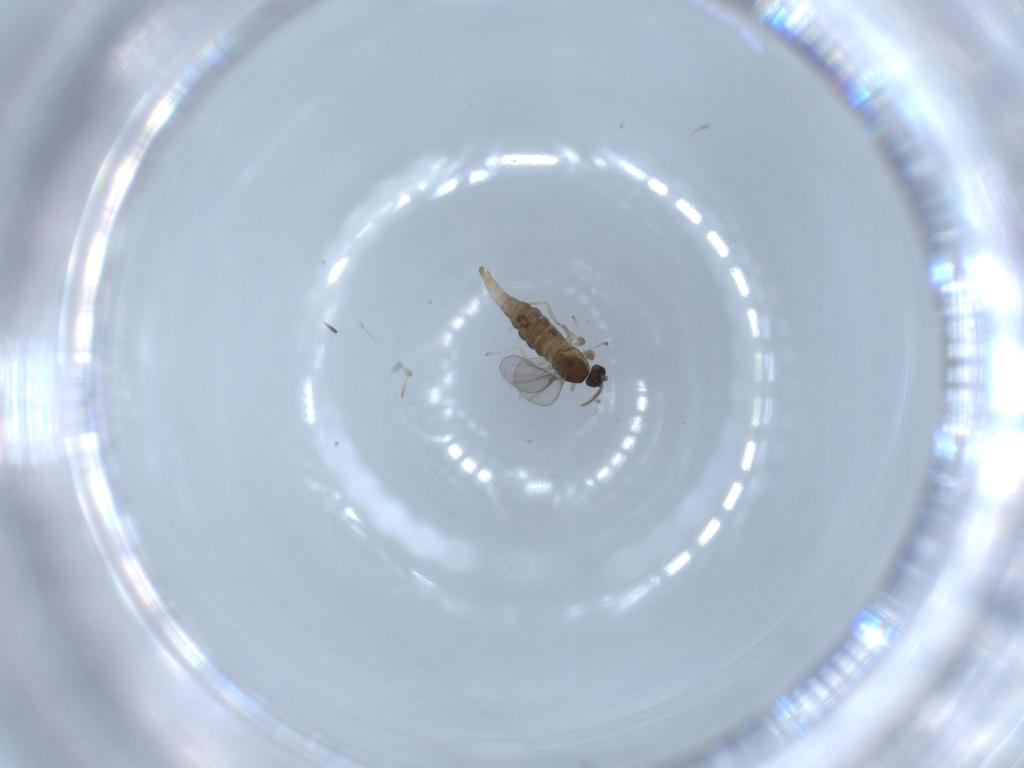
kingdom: Animalia
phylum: Arthropoda
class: Insecta
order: Diptera
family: Cecidomyiidae
